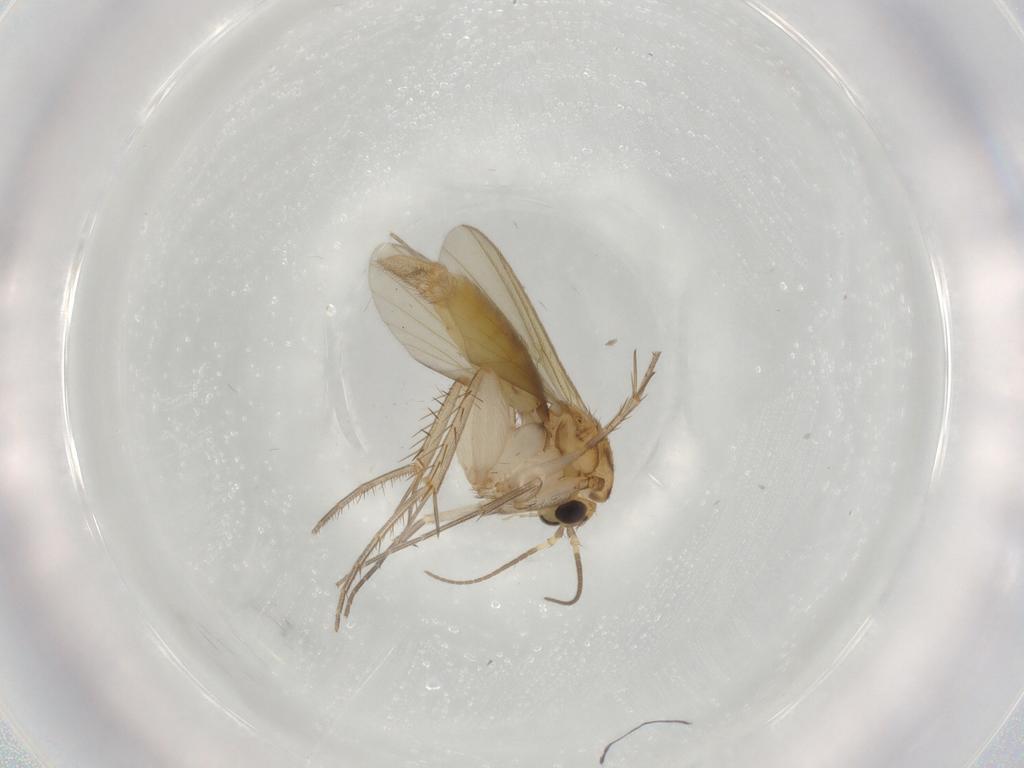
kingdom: Animalia
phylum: Arthropoda
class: Insecta
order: Diptera
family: Mycetophilidae
